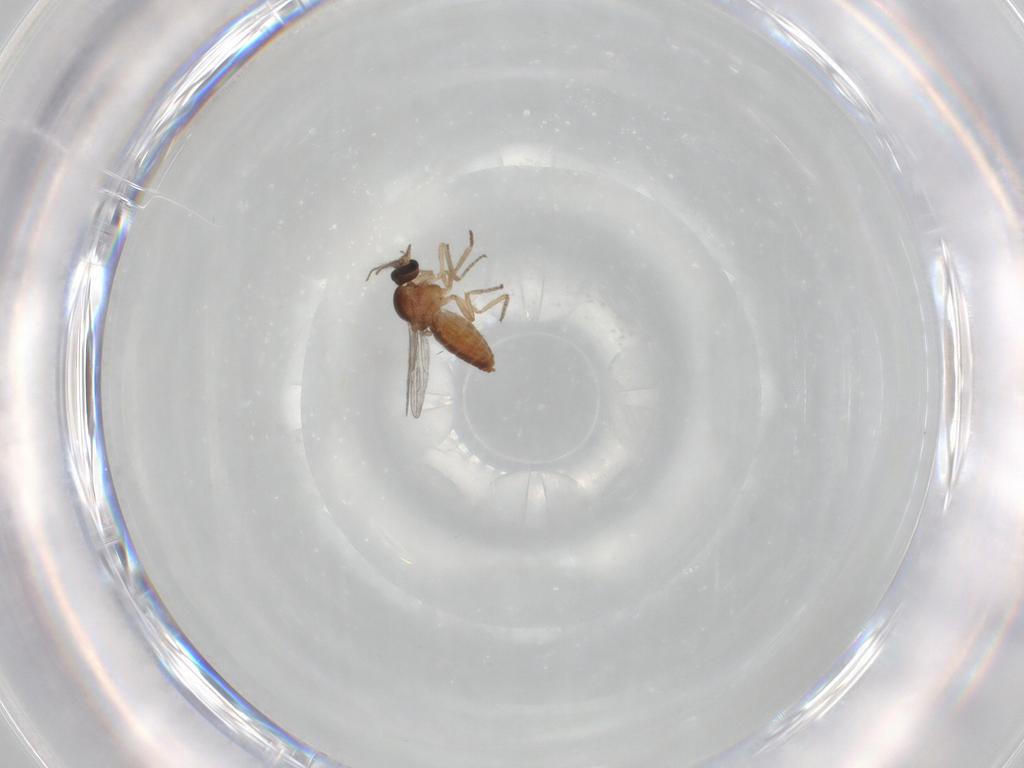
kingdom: Animalia
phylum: Arthropoda
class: Insecta
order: Diptera
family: Ceratopogonidae
